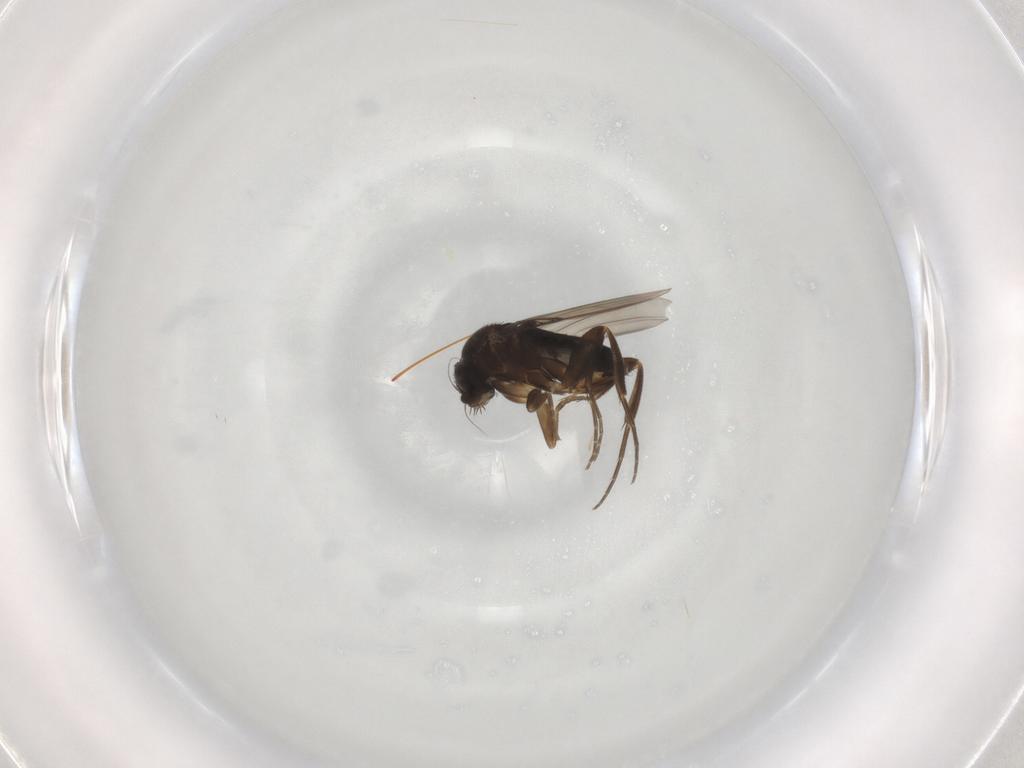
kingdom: Animalia
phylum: Arthropoda
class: Insecta
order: Diptera
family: Phoridae
